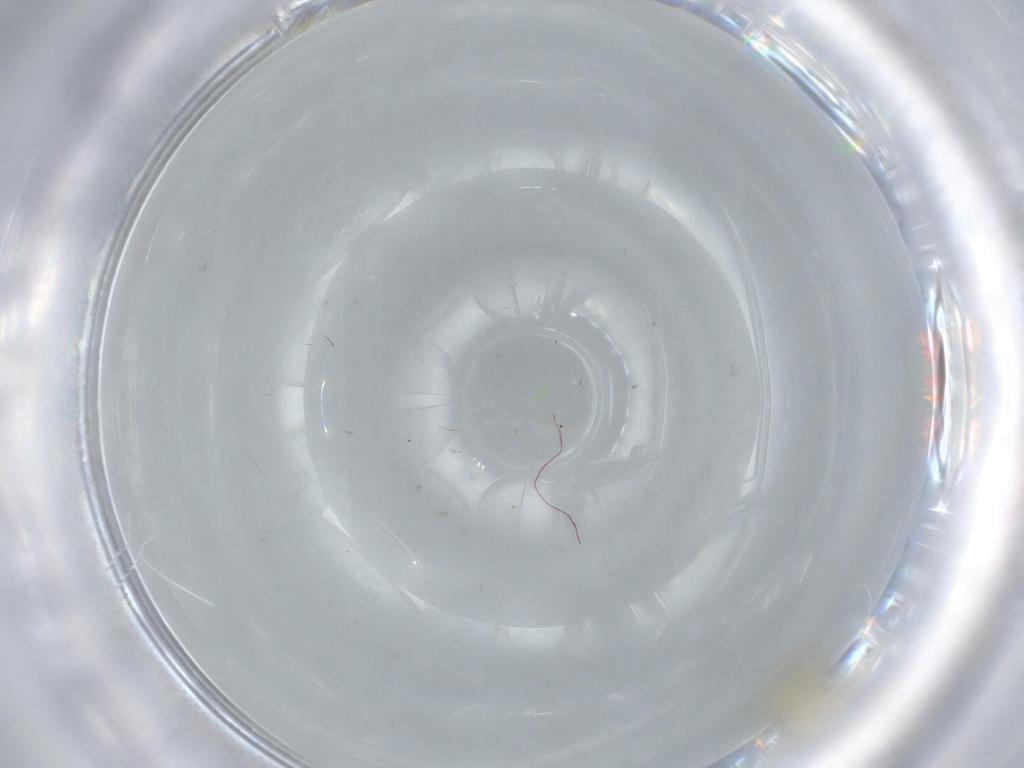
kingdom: Animalia
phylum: Arthropoda
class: Insecta
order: Diptera
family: Chironomidae
